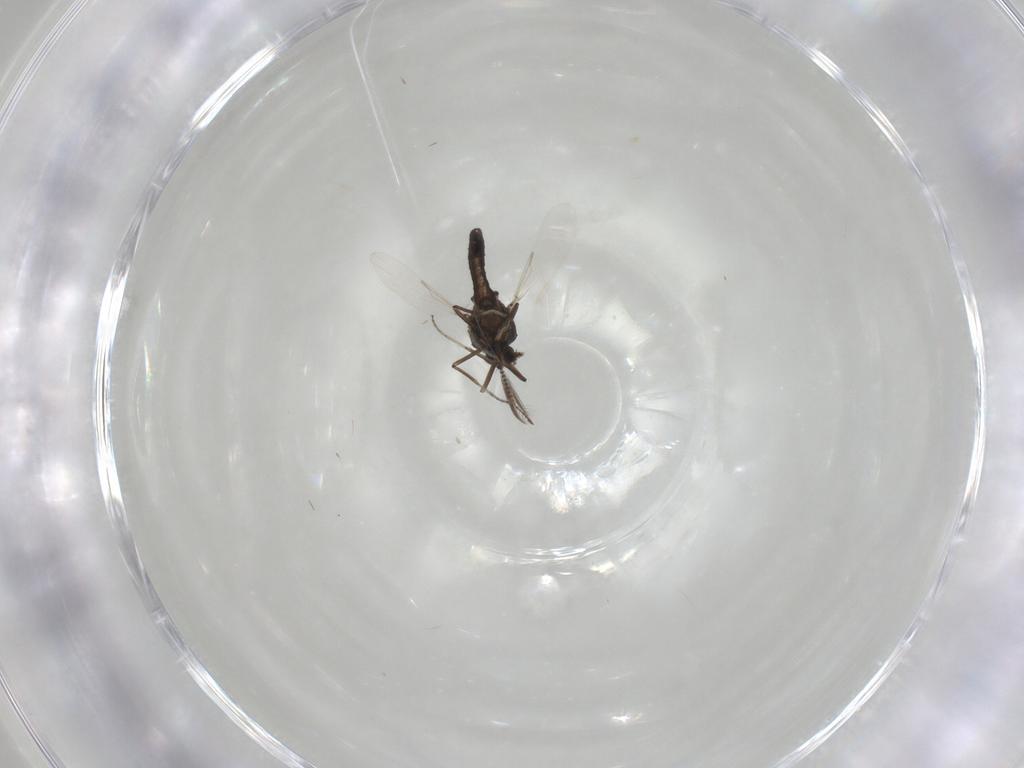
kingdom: Animalia
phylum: Arthropoda
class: Insecta
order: Diptera
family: Ceratopogonidae
